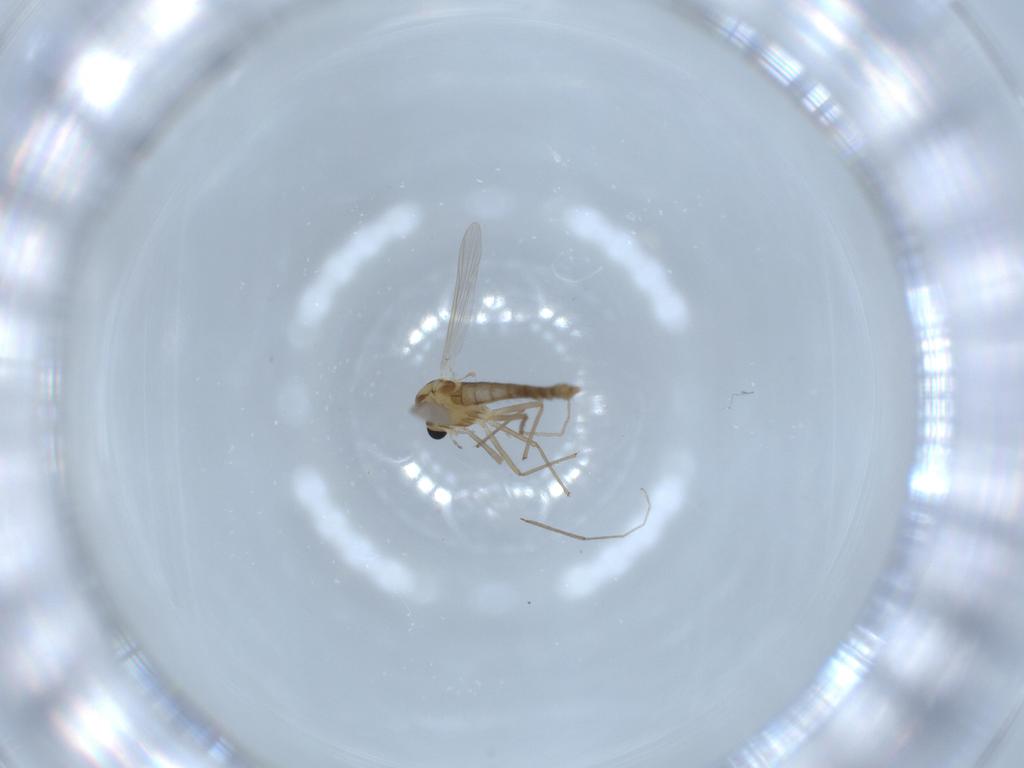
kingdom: Animalia
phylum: Arthropoda
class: Insecta
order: Diptera
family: Chironomidae
